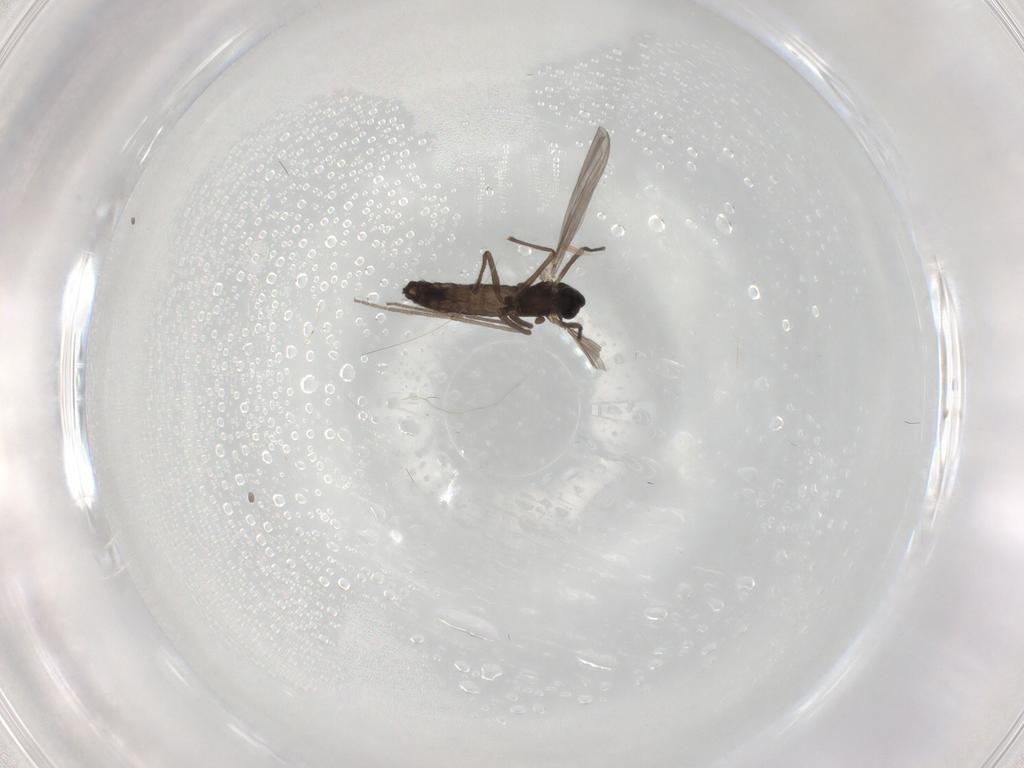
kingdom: Animalia
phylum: Arthropoda
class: Insecta
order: Diptera
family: Chironomidae
